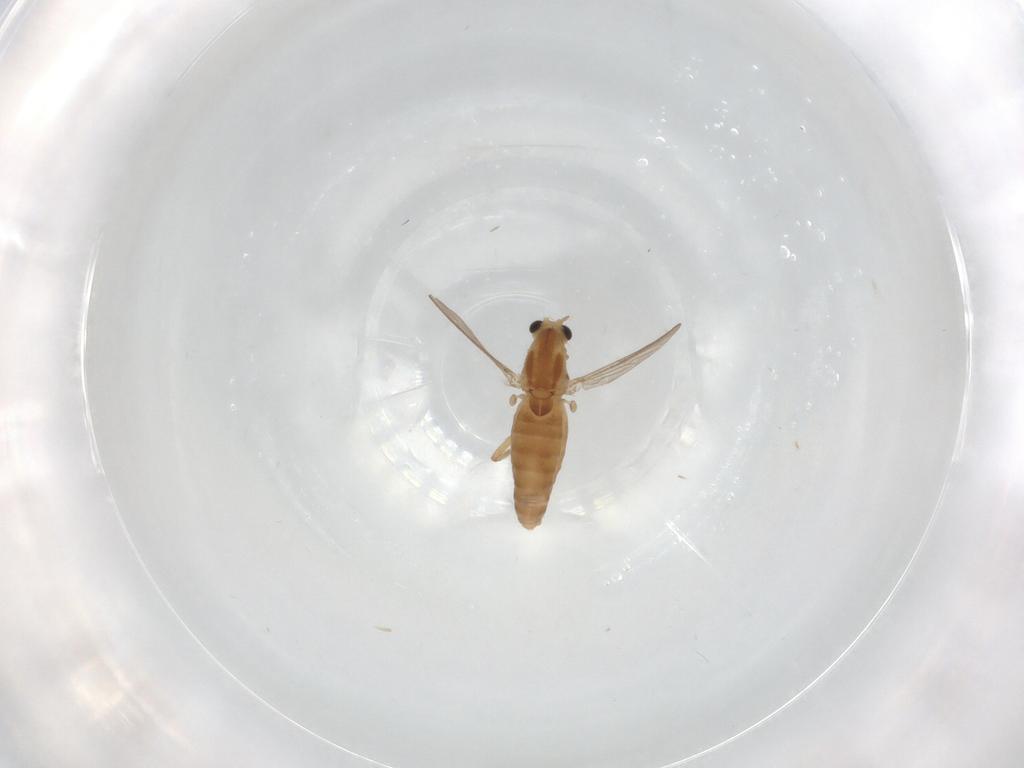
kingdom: Animalia
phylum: Arthropoda
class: Insecta
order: Diptera
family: Chironomidae
